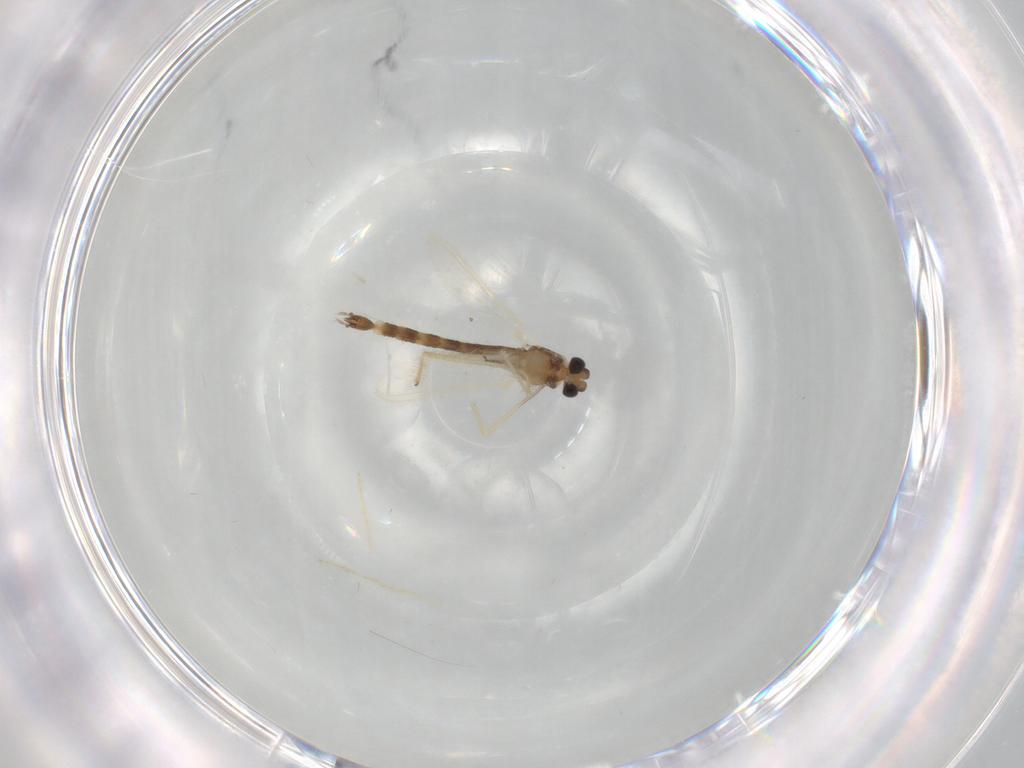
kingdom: Animalia
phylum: Arthropoda
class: Insecta
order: Diptera
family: Chironomidae
